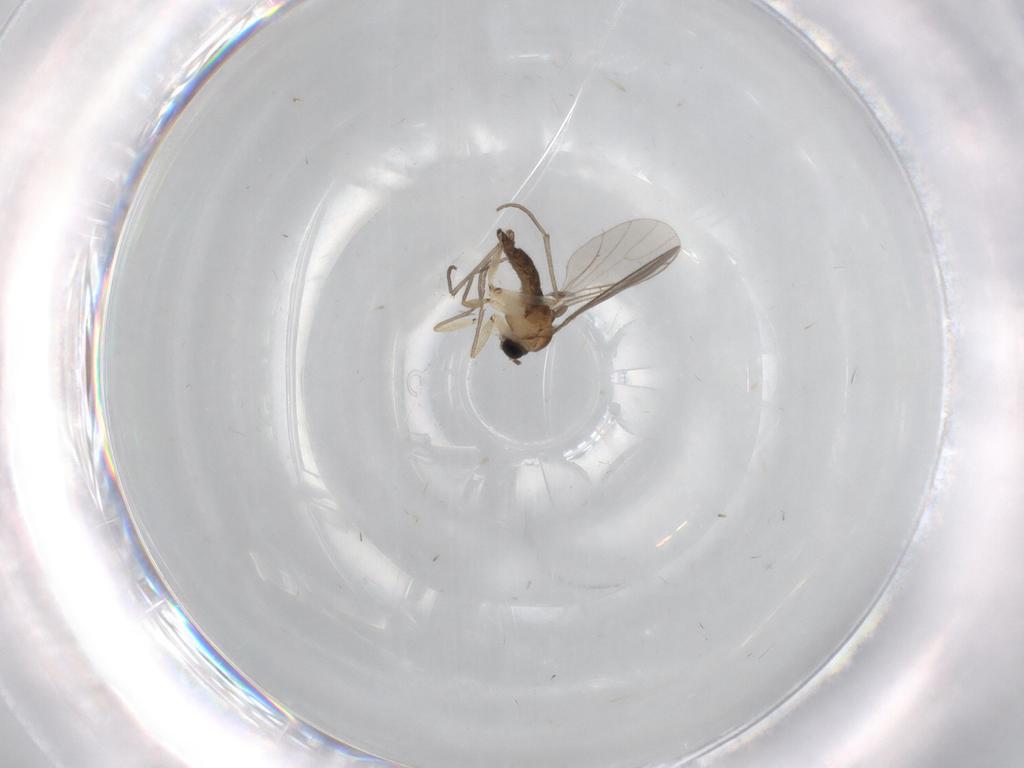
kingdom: Animalia
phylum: Arthropoda
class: Insecta
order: Diptera
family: Sciaridae
